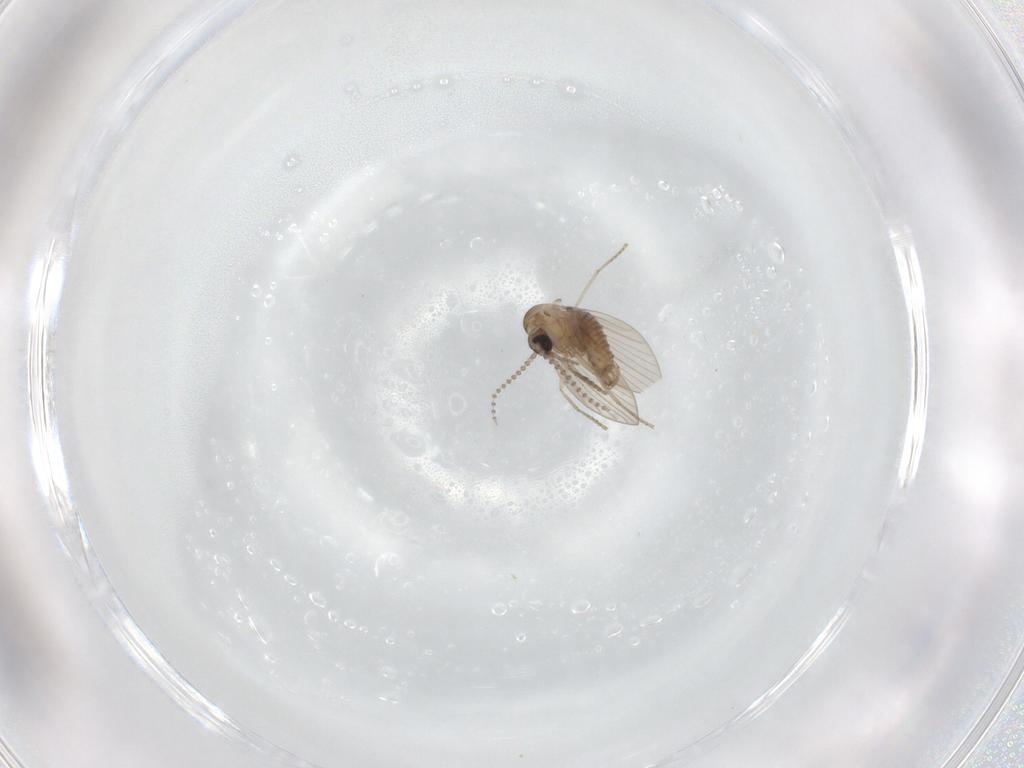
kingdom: Animalia
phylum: Arthropoda
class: Insecta
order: Diptera
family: Psychodidae
